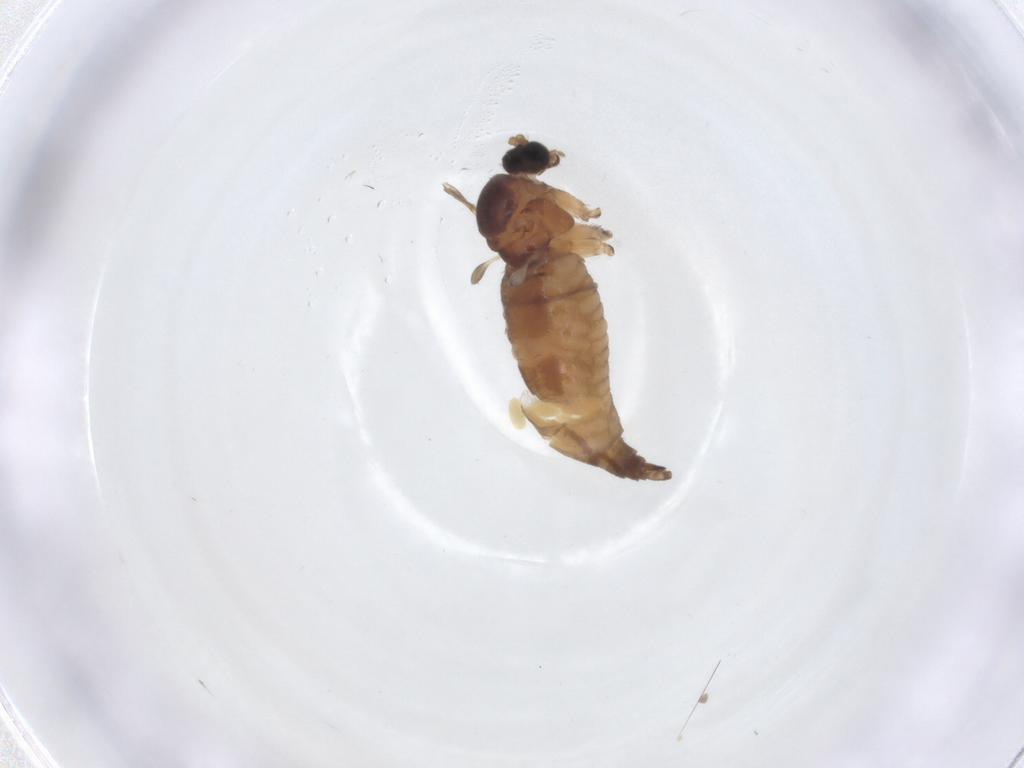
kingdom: Animalia
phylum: Arthropoda
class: Insecta
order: Diptera
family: Sciaridae
